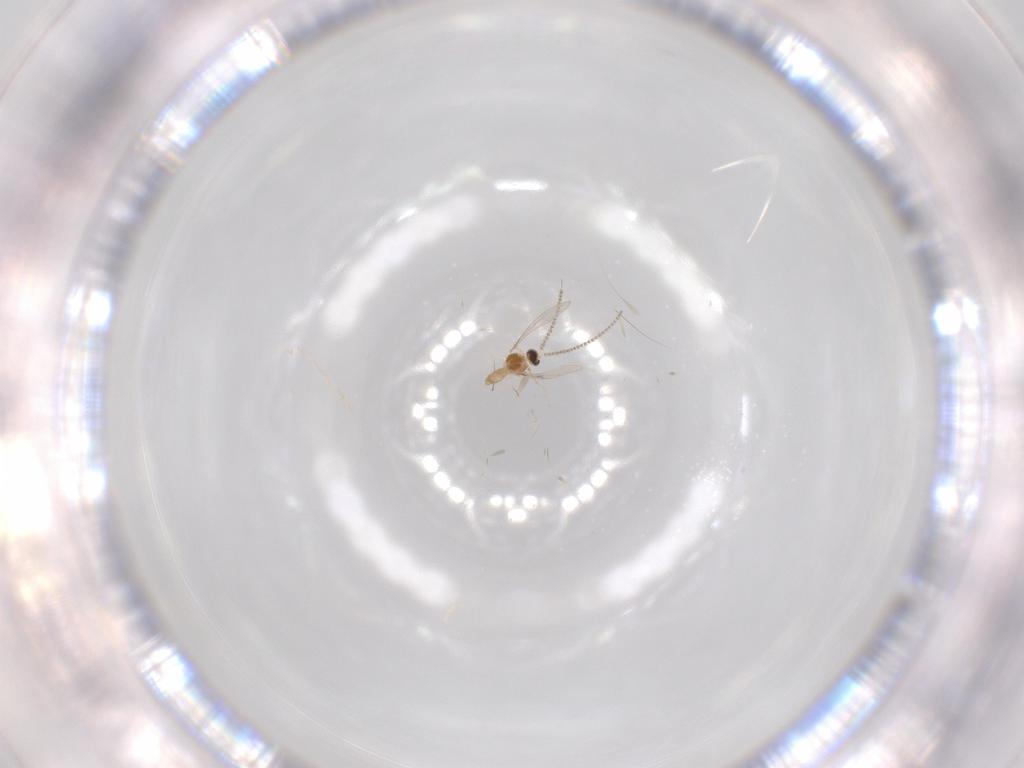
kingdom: Animalia
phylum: Arthropoda
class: Insecta
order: Diptera
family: Cecidomyiidae
